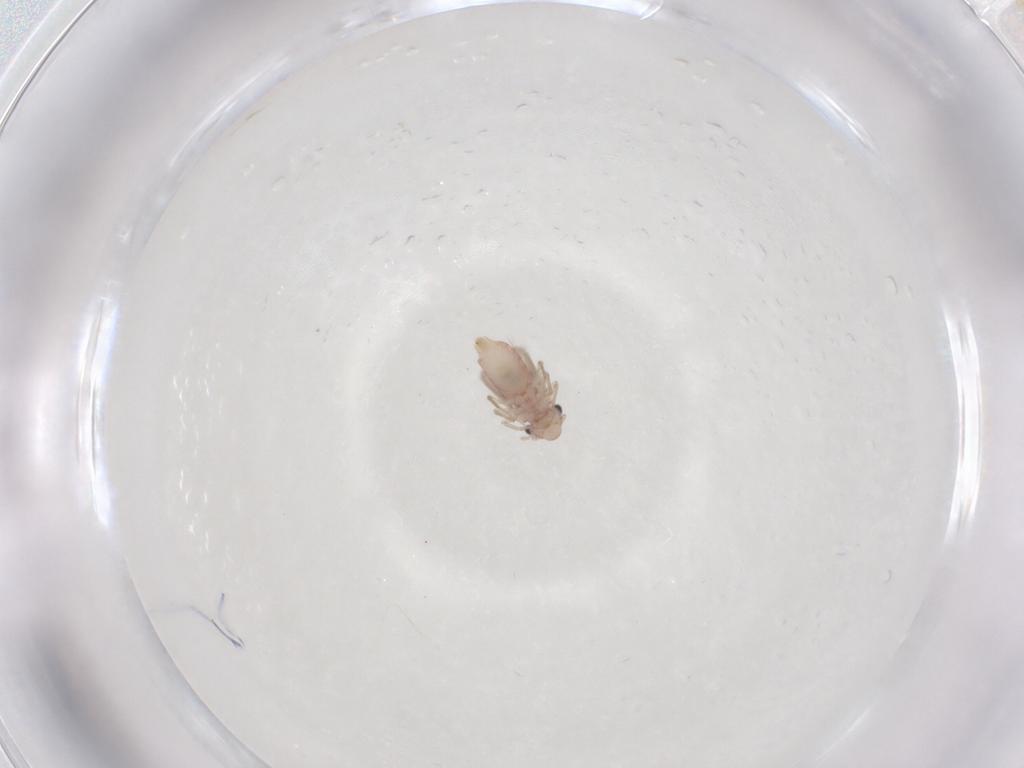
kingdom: Animalia
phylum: Arthropoda
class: Insecta
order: Psocodea
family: Lepidopsocidae
